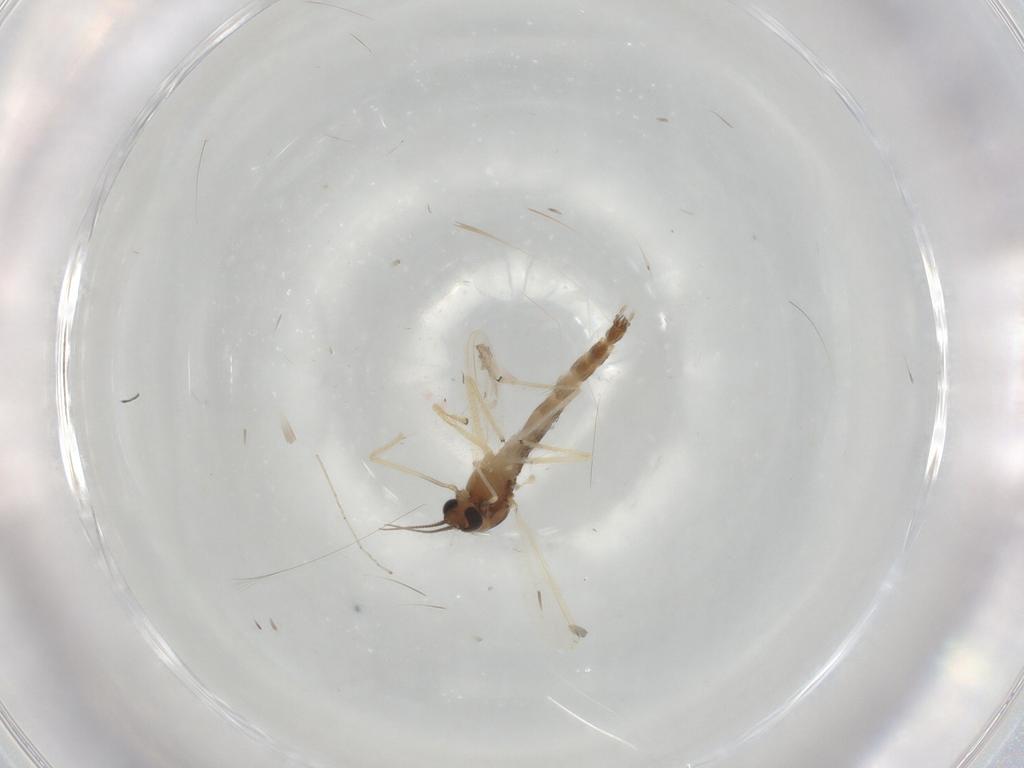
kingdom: Animalia
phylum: Arthropoda
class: Insecta
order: Diptera
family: Chironomidae
